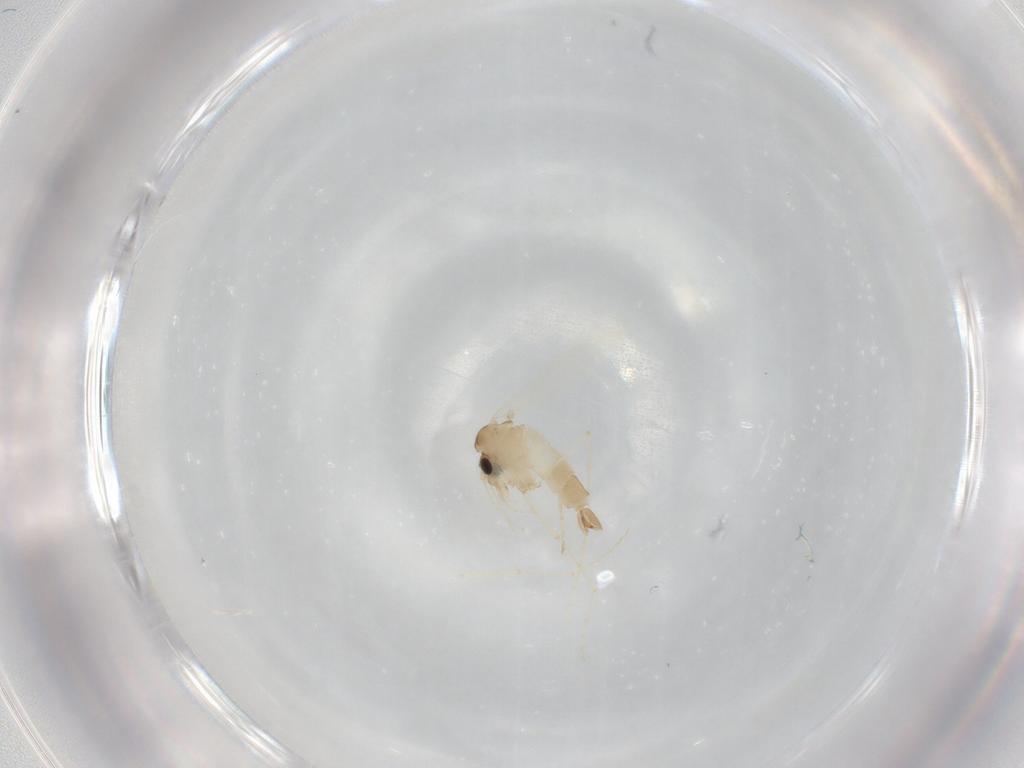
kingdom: Animalia
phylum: Arthropoda
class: Insecta
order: Diptera
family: Psychodidae
